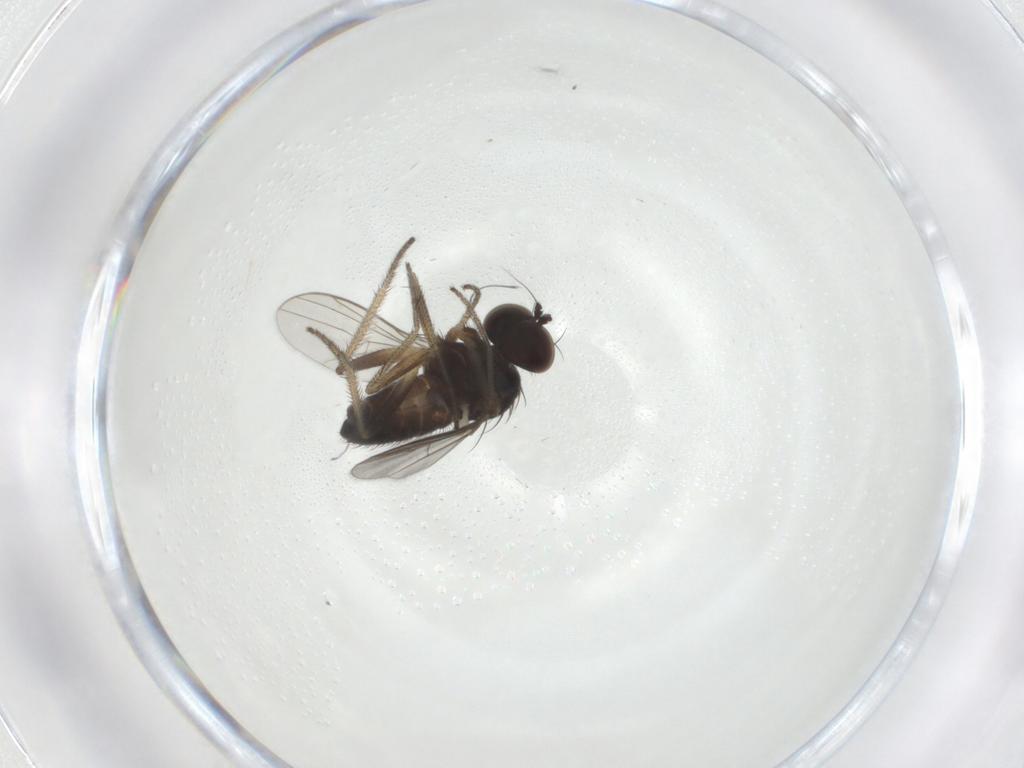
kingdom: Animalia
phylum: Arthropoda
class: Insecta
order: Diptera
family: Dolichopodidae
